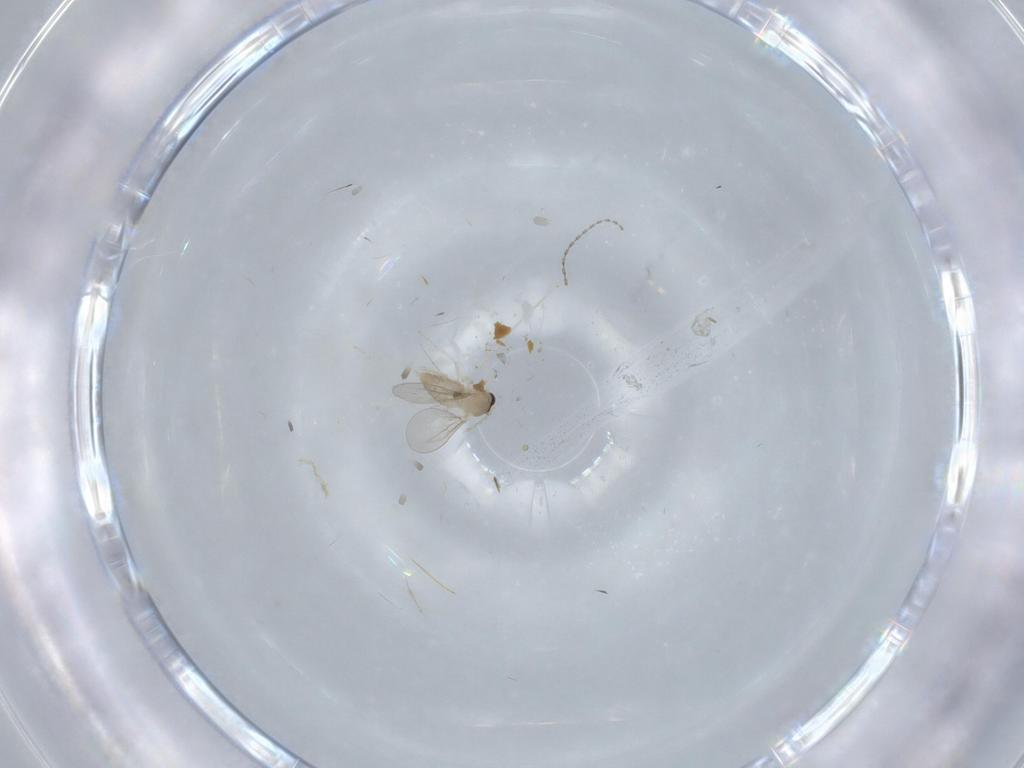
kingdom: Animalia
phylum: Arthropoda
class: Insecta
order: Diptera
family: Cecidomyiidae
